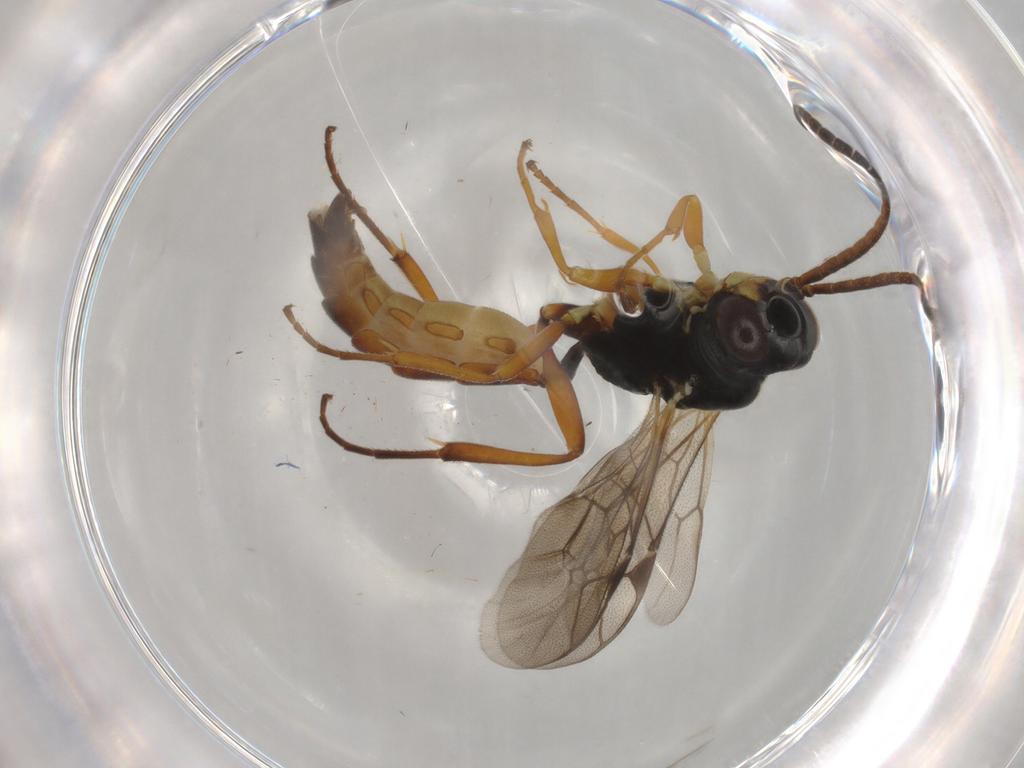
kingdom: Animalia
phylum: Arthropoda
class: Insecta
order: Hymenoptera
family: Ichneumonidae
